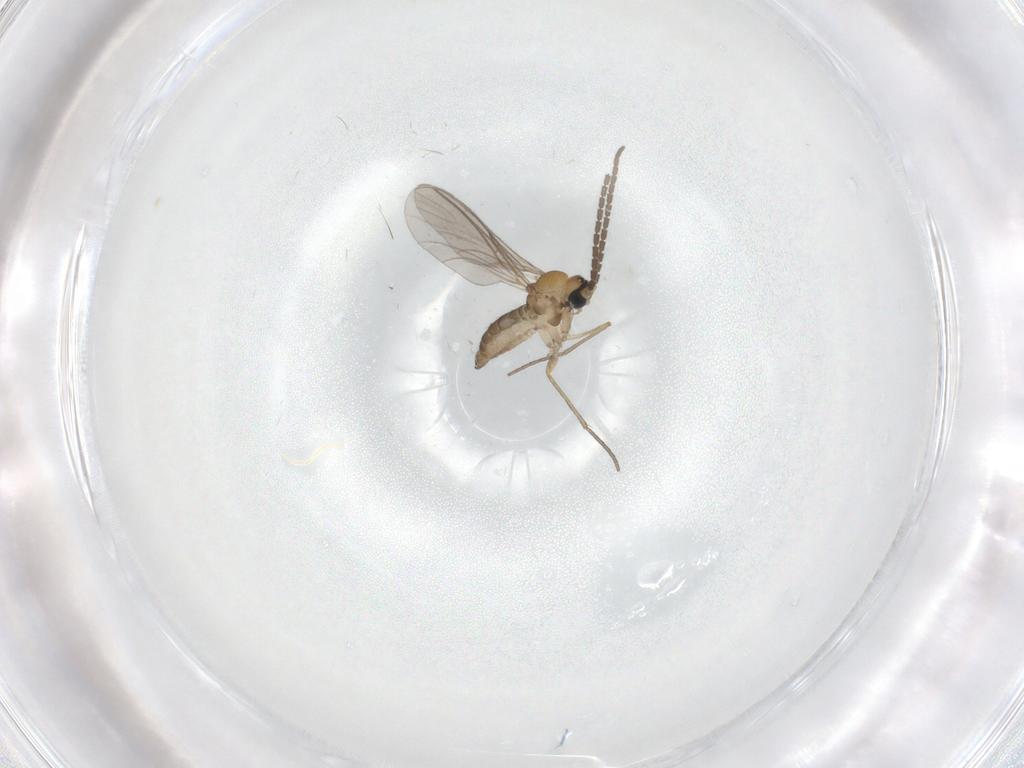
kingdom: Animalia
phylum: Arthropoda
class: Insecta
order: Diptera
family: Sciaridae
